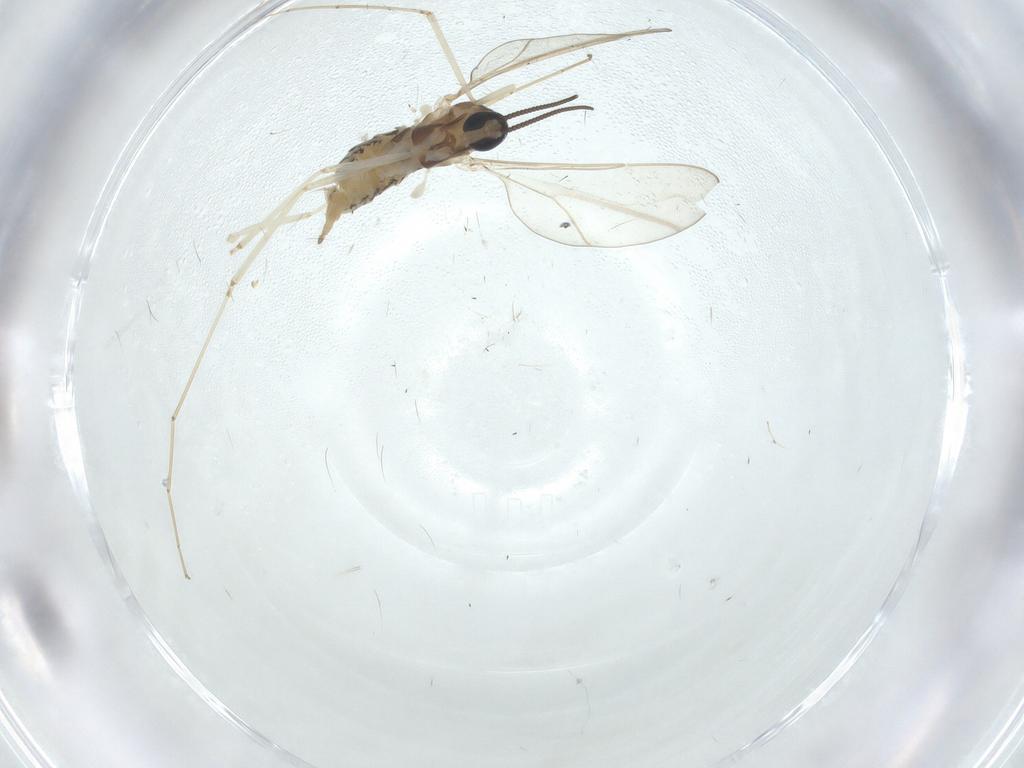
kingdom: Animalia
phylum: Arthropoda
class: Insecta
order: Diptera
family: Cecidomyiidae
